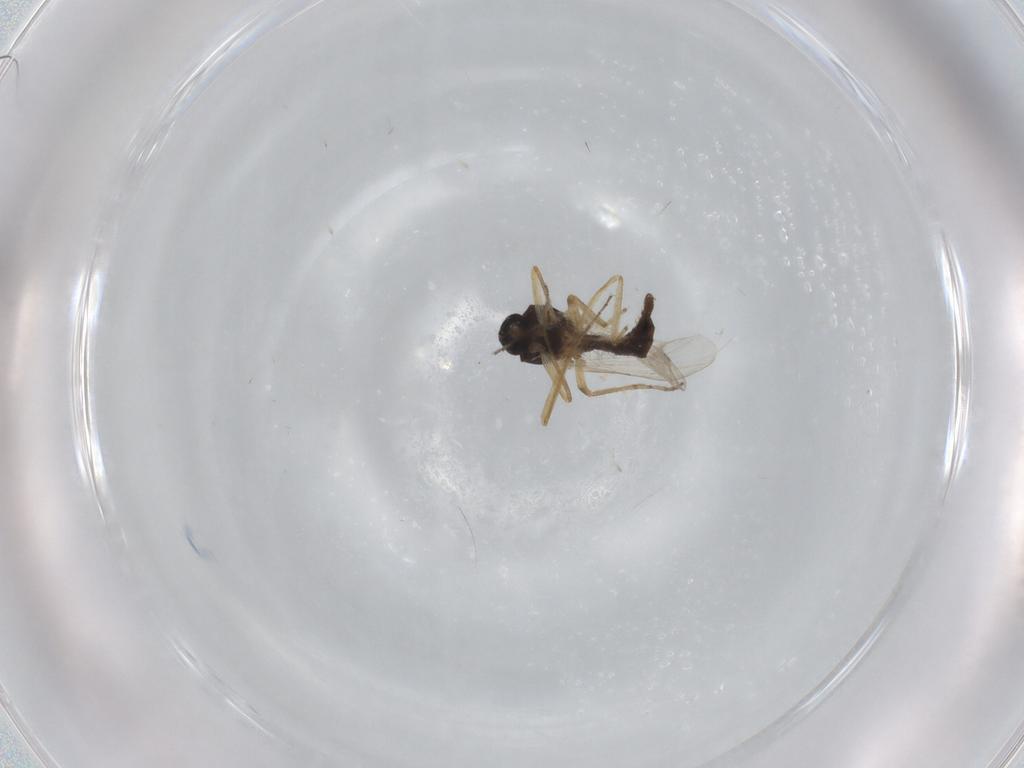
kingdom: Animalia
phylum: Arthropoda
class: Insecta
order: Diptera
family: Ceratopogonidae
